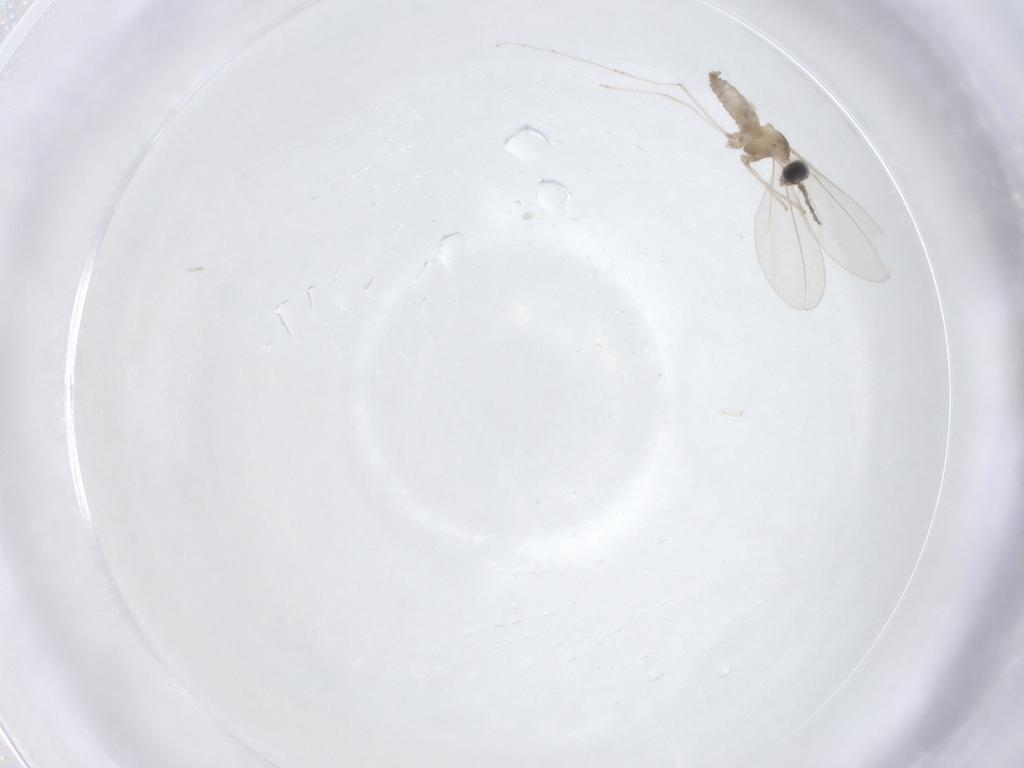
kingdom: Animalia
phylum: Arthropoda
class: Insecta
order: Diptera
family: Cecidomyiidae
